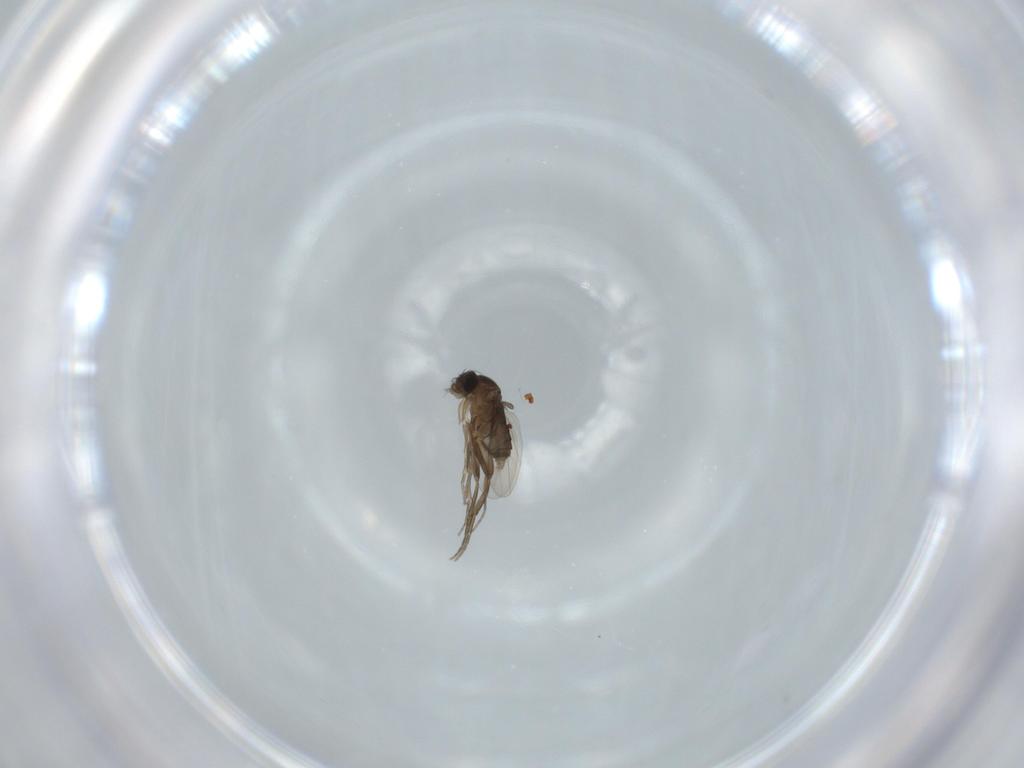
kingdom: Animalia
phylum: Arthropoda
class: Insecta
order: Diptera
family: Phoridae
